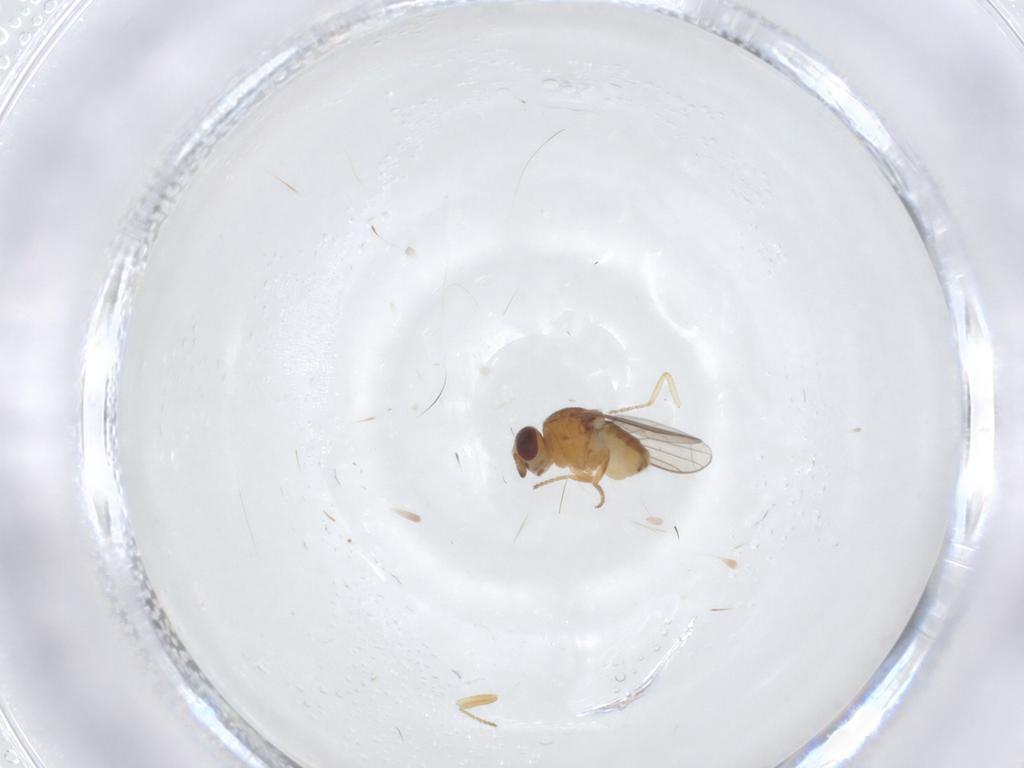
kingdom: Animalia
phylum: Arthropoda
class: Insecta
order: Diptera
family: Chloropidae
